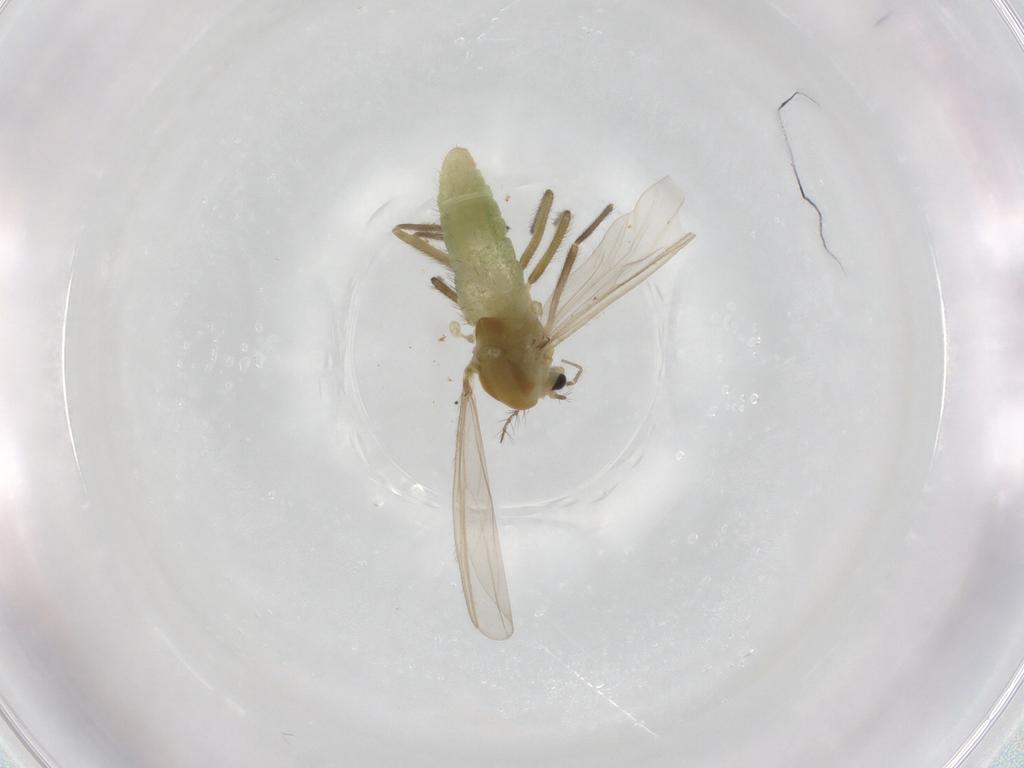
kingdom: Animalia
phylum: Arthropoda
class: Insecta
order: Diptera
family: Chironomidae
